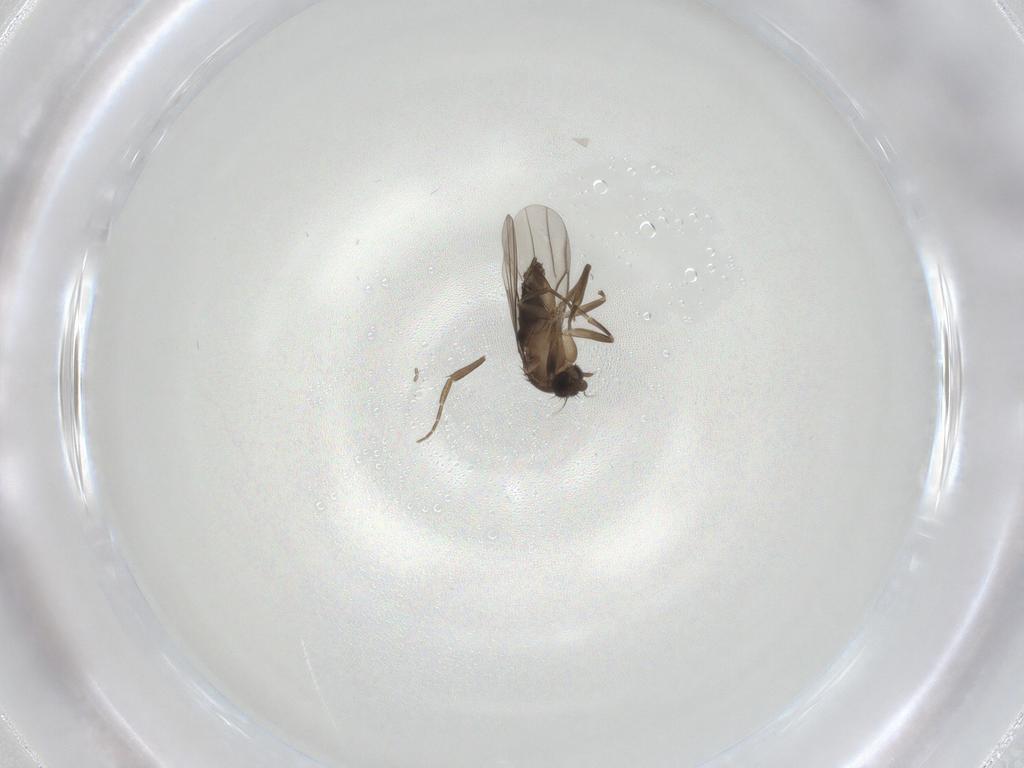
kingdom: Animalia
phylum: Arthropoda
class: Insecta
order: Diptera
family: Phoridae
